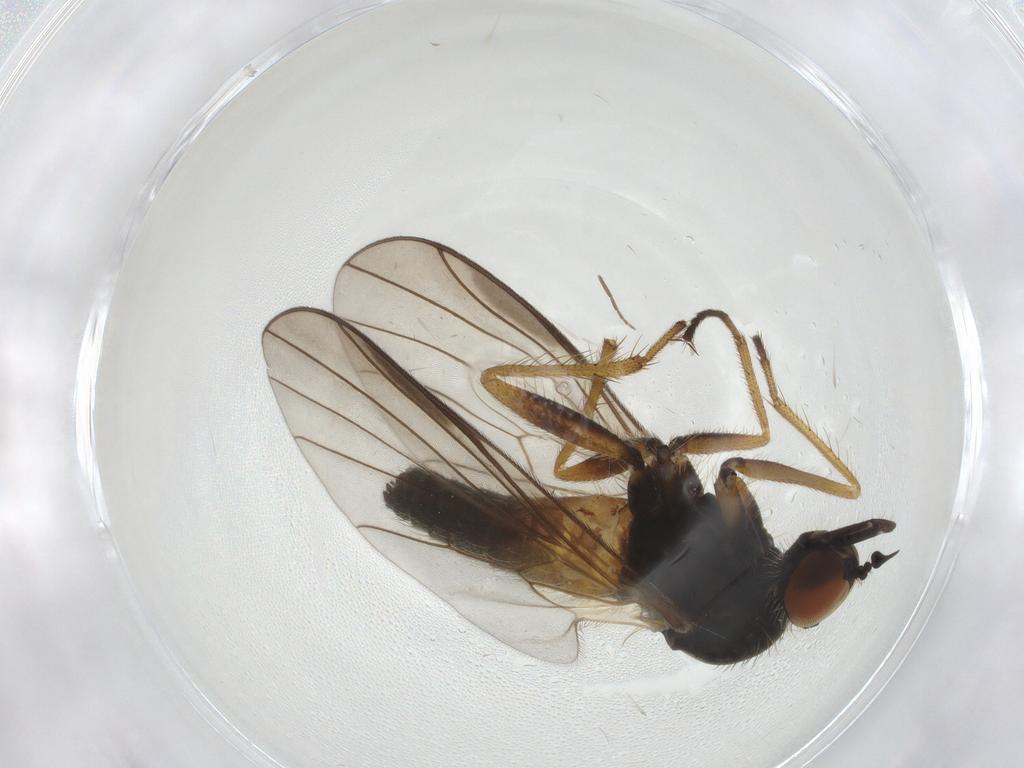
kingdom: Animalia
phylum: Arthropoda
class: Insecta
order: Diptera
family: Empididae
